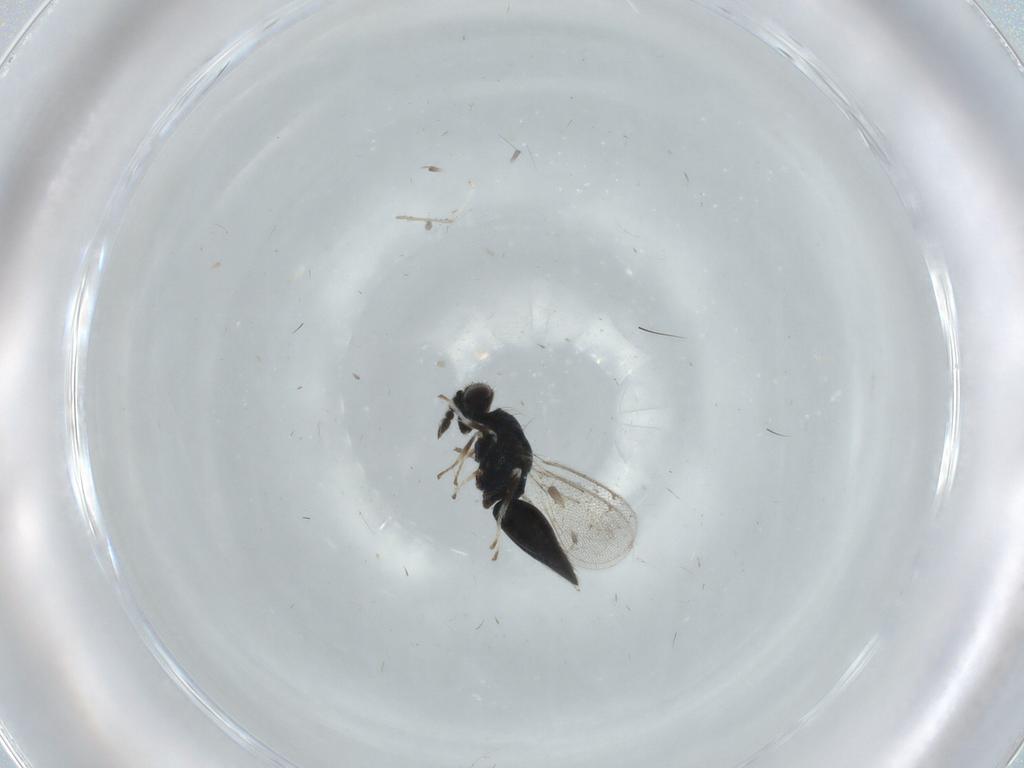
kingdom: Animalia
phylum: Arthropoda
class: Insecta
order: Hymenoptera
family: Eulophidae
